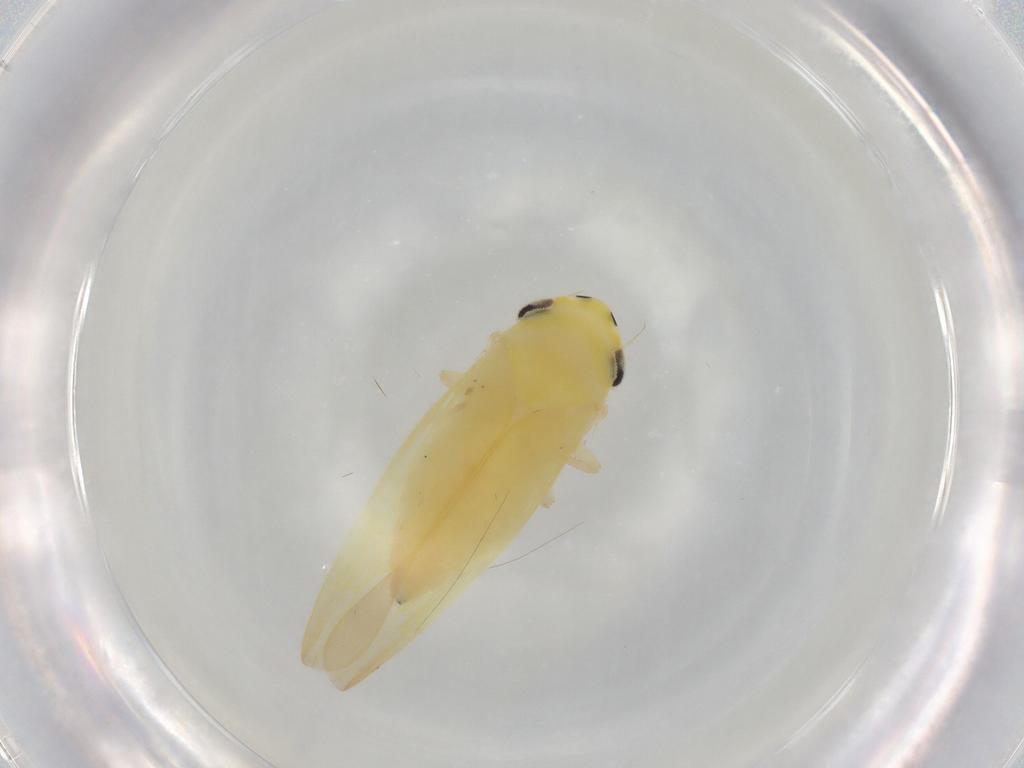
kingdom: Animalia
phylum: Arthropoda
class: Insecta
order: Hemiptera
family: Cicadellidae
